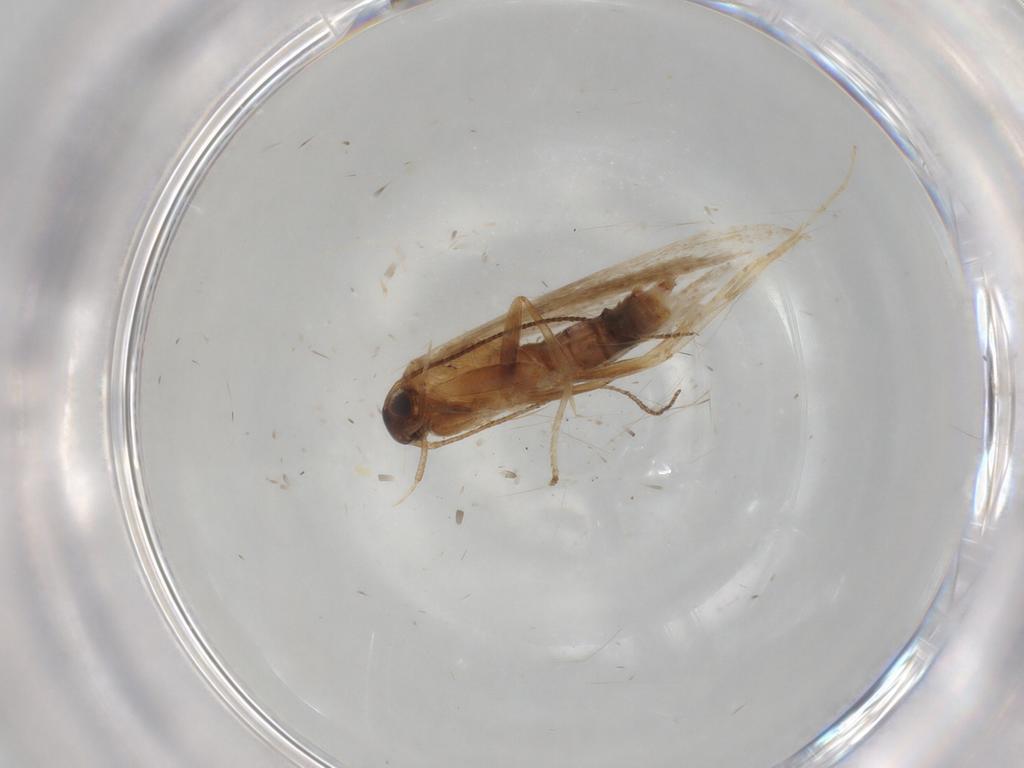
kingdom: Animalia
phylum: Arthropoda
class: Insecta
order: Lepidoptera
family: Gelechiidae
